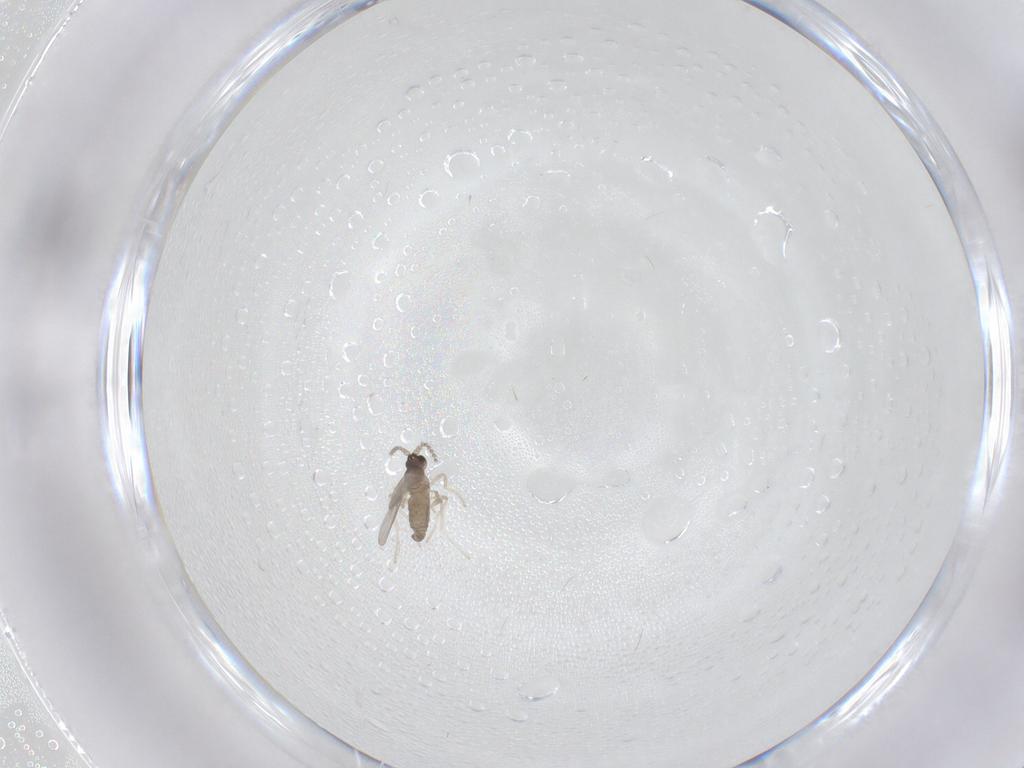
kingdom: Animalia
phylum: Arthropoda
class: Insecta
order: Diptera
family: Cecidomyiidae
